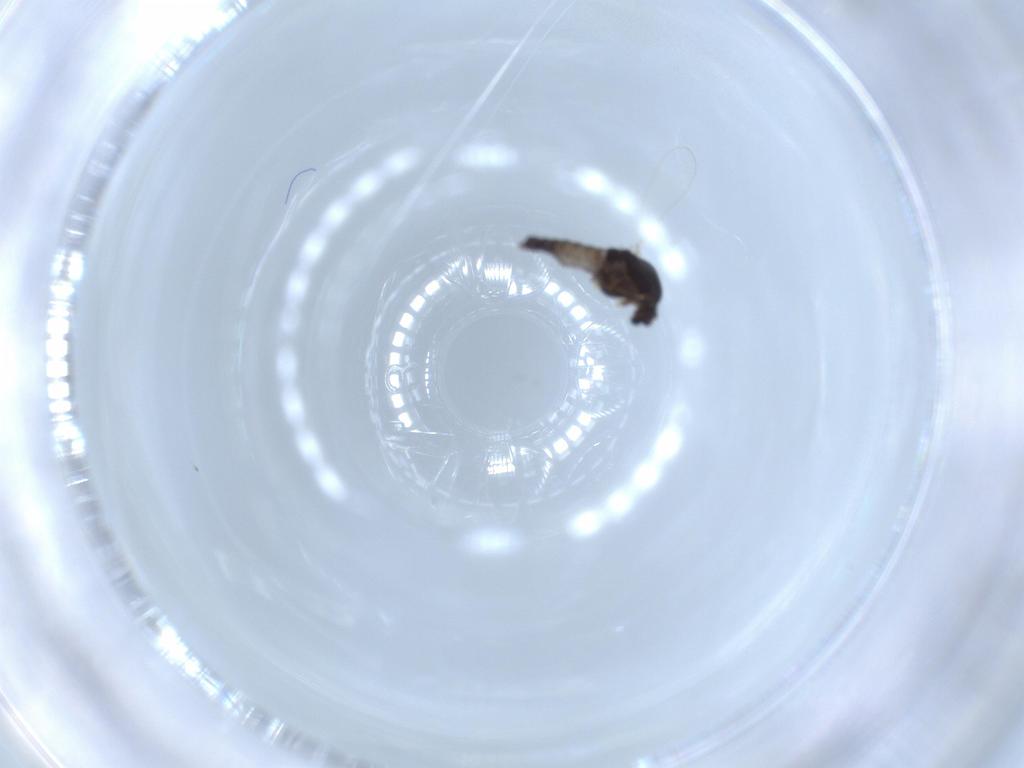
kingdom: Animalia
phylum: Arthropoda
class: Insecta
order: Diptera
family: Chironomidae
